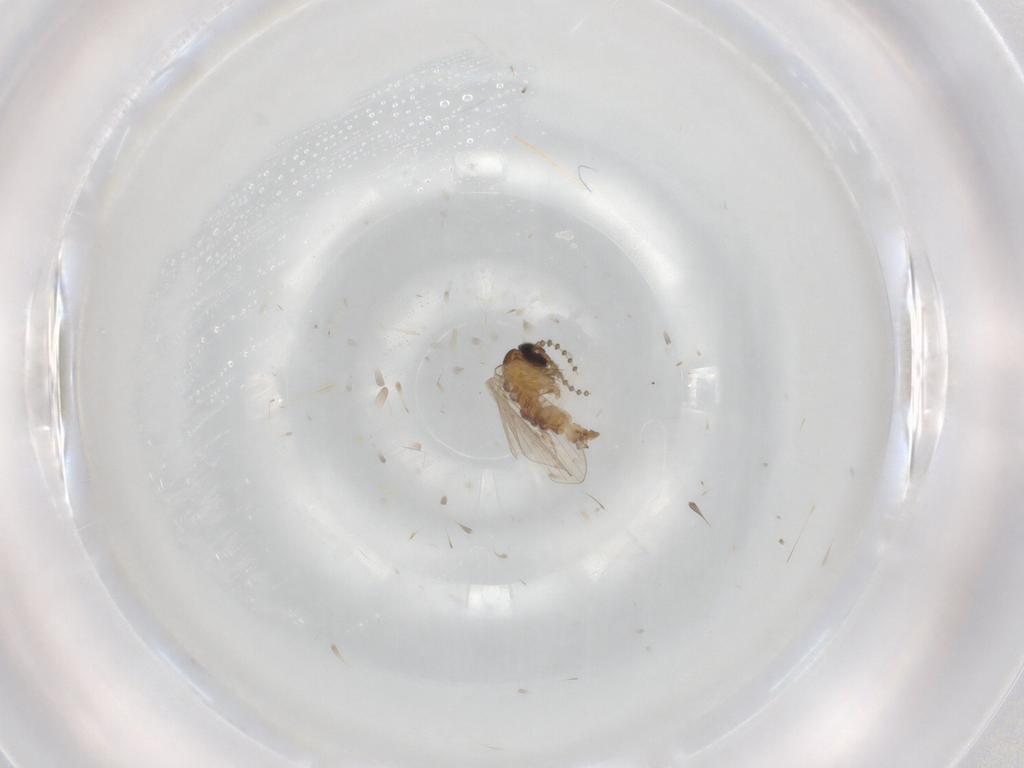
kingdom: Animalia
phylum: Arthropoda
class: Insecta
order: Diptera
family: Psychodidae
